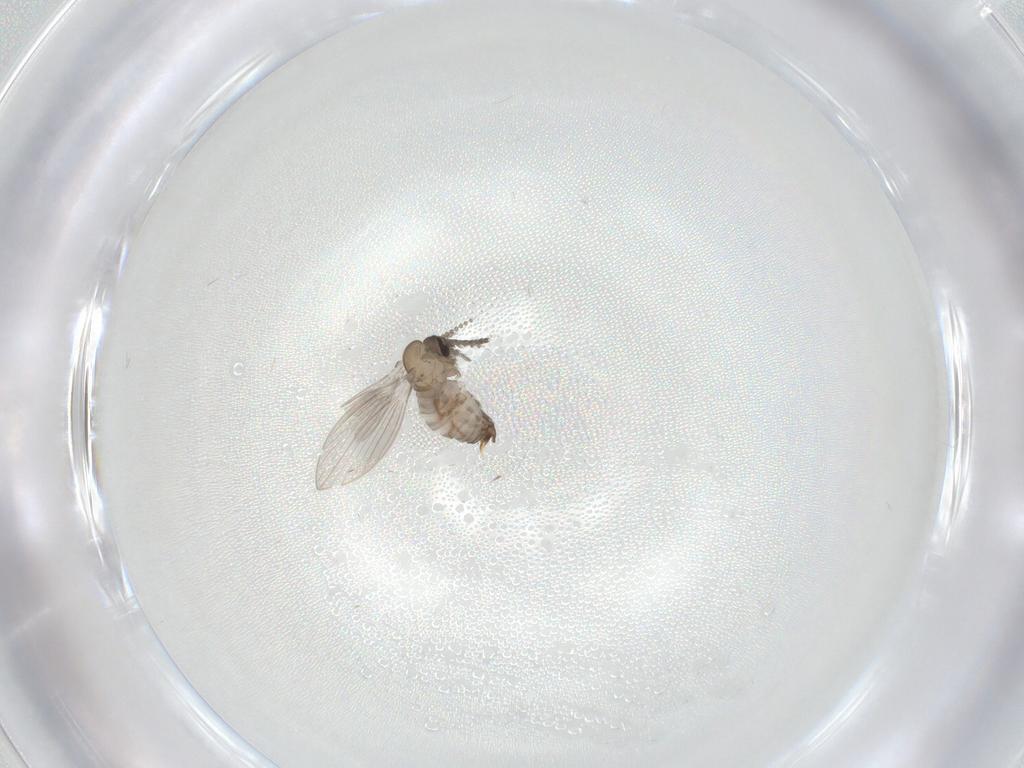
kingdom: Animalia
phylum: Arthropoda
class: Insecta
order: Diptera
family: Psychodidae
